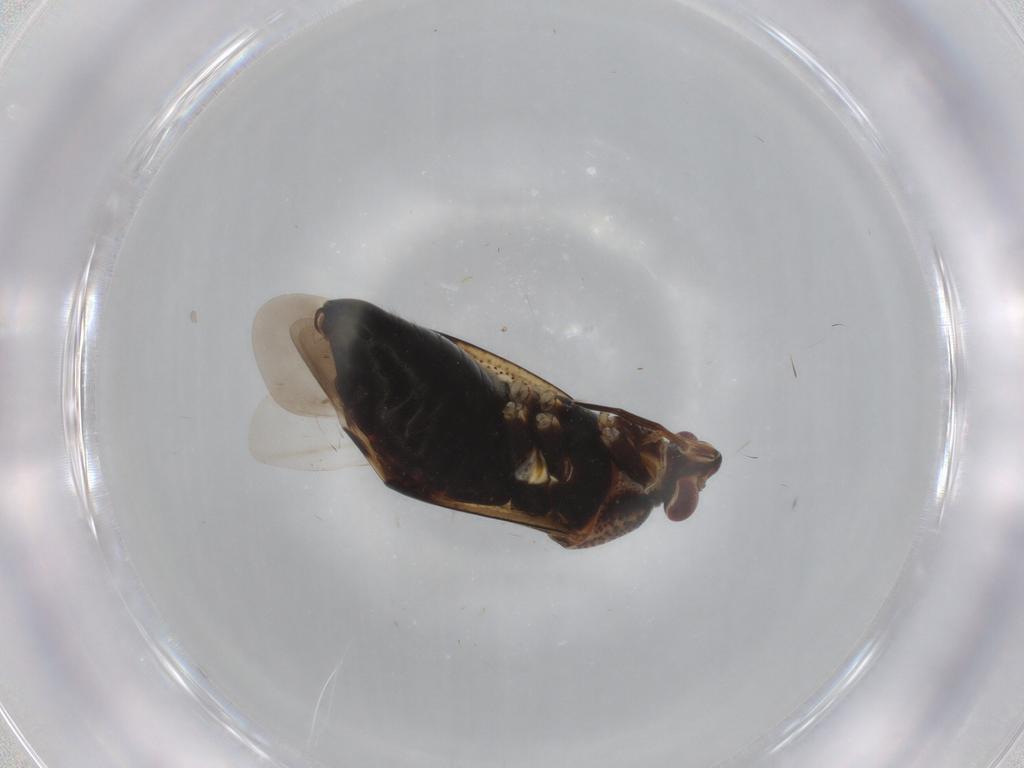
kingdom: Animalia
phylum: Arthropoda
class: Insecta
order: Hemiptera
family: Miridae
